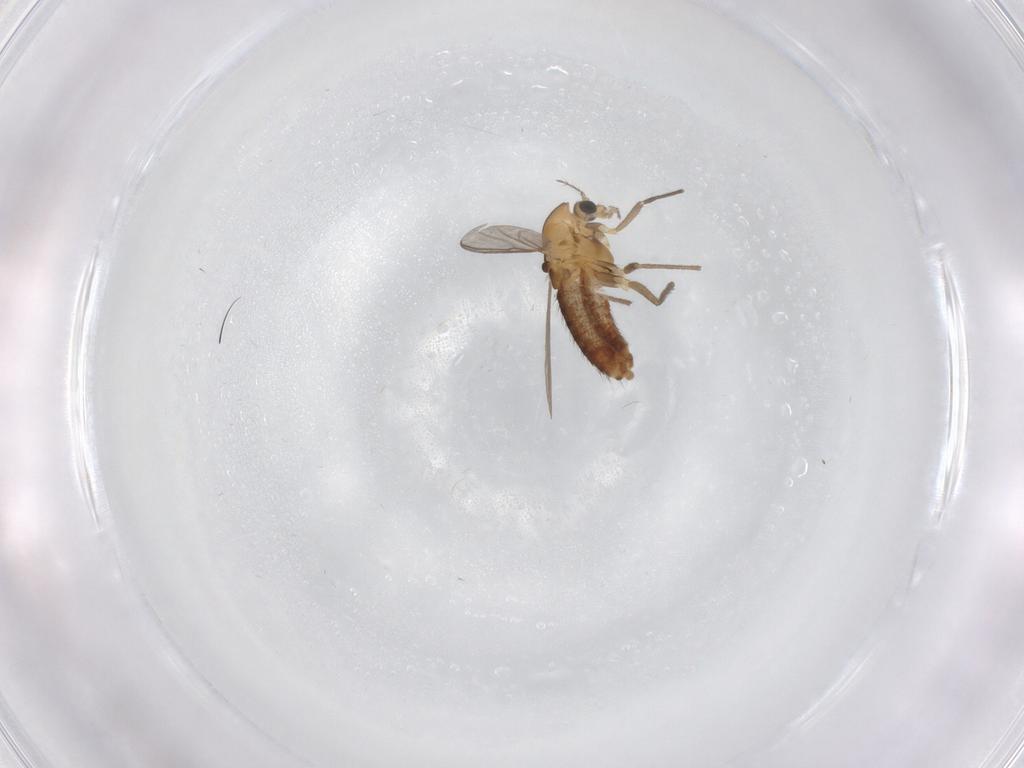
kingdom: Animalia
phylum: Arthropoda
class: Insecta
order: Diptera
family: Chironomidae
